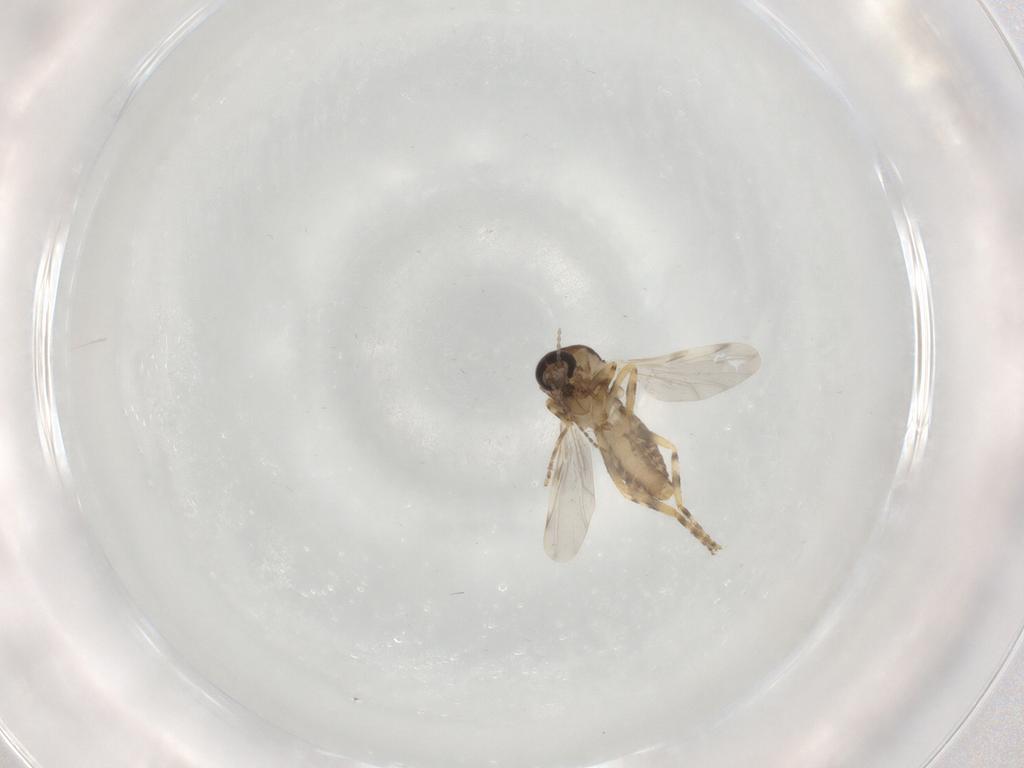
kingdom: Animalia
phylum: Arthropoda
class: Insecta
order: Diptera
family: Ceratopogonidae
